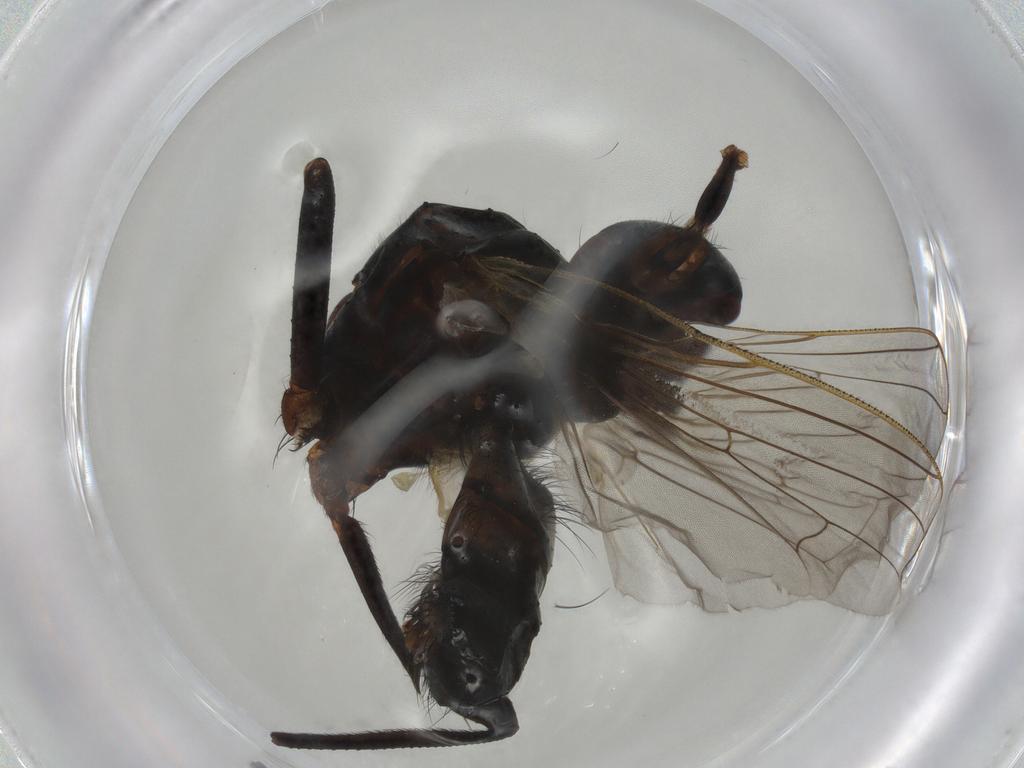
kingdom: Animalia
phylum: Arthropoda
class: Insecta
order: Diptera
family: Anthomyiidae
